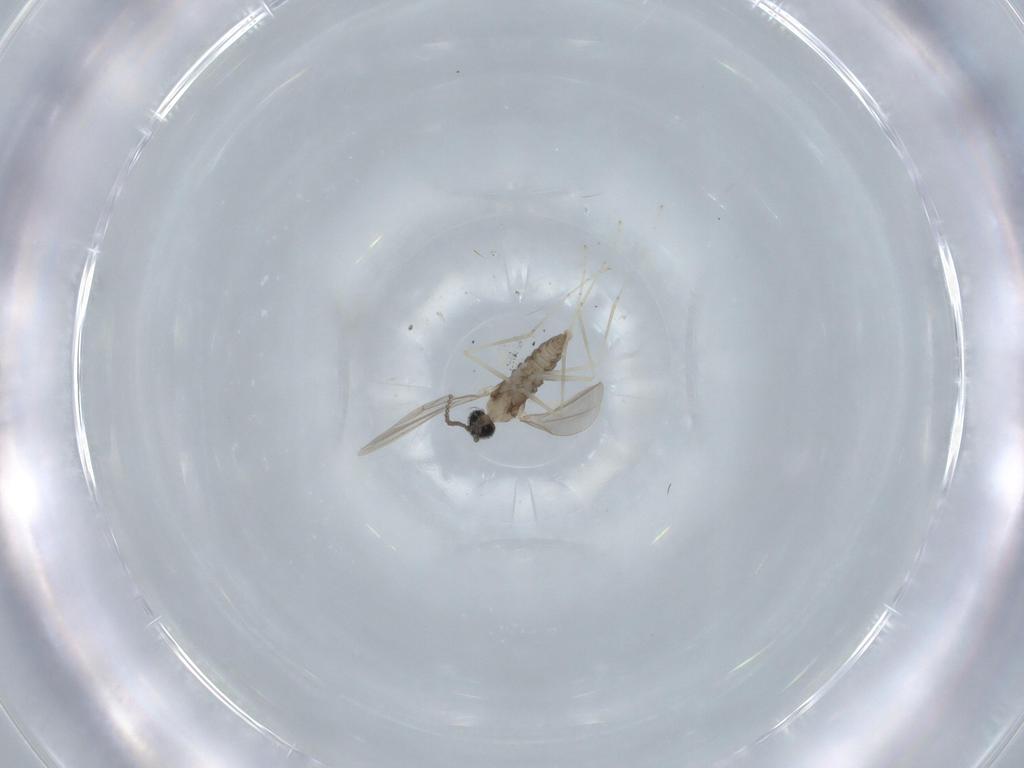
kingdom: Animalia
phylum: Arthropoda
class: Insecta
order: Diptera
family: Cecidomyiidae
